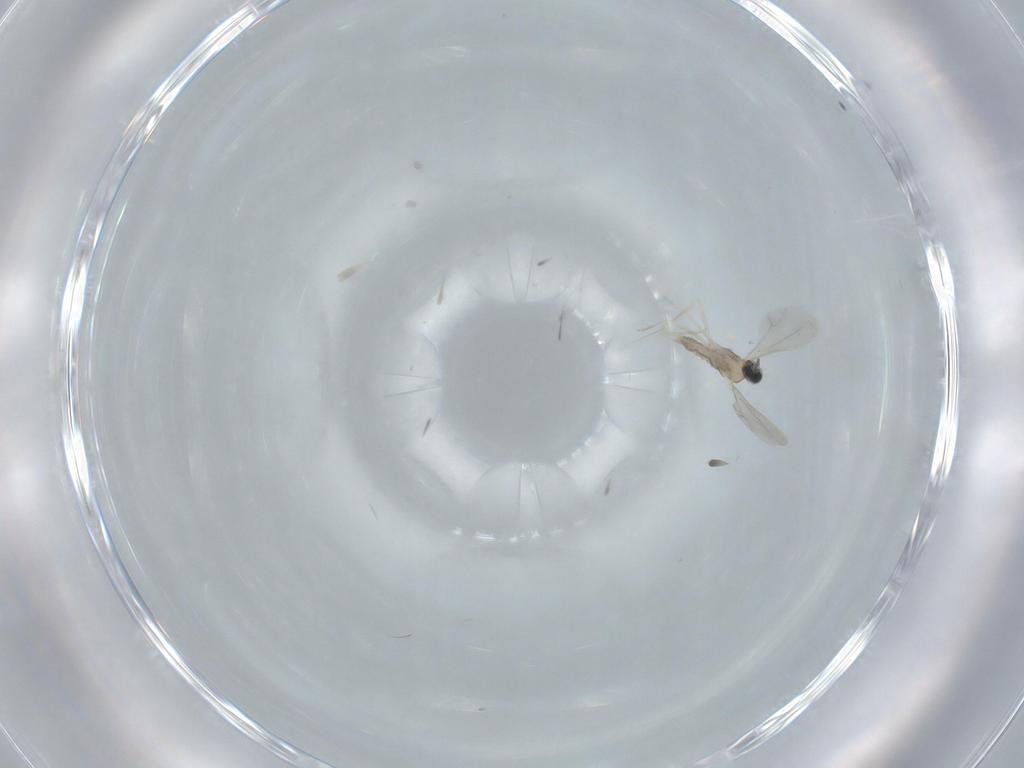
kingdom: Animalia
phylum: Arthropoda
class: Insecta
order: Diptera
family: Cecidomyiidae
